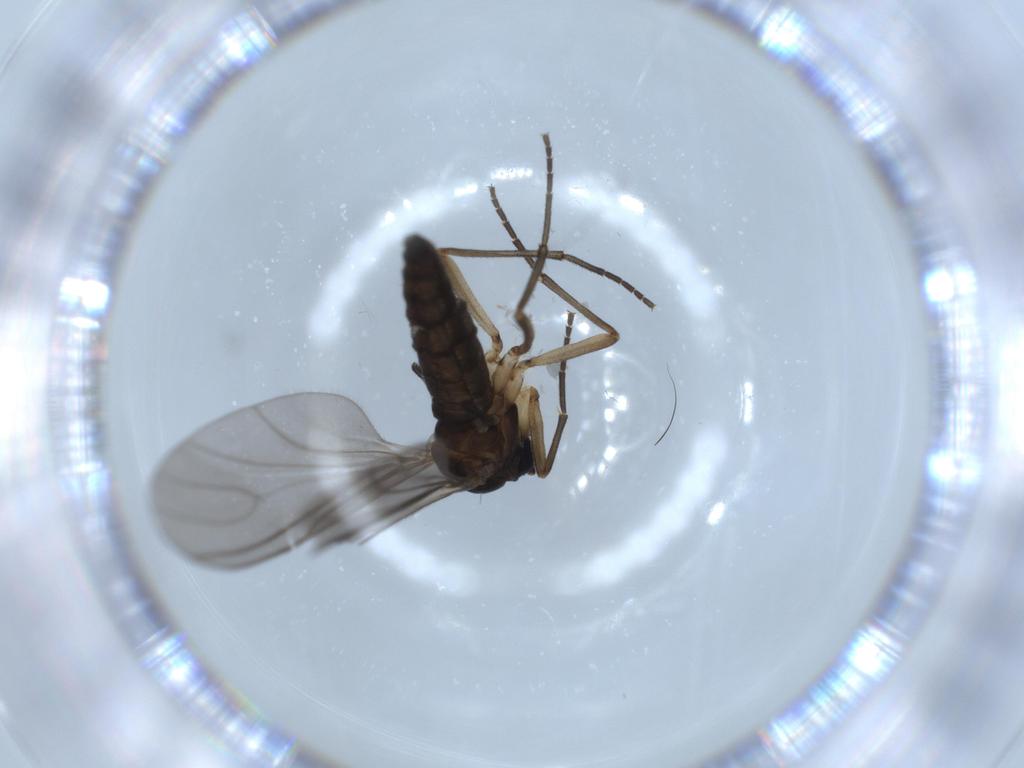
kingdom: Animalia
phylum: Arthropoda
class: Insecta
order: Diptera
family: Sciaridae
